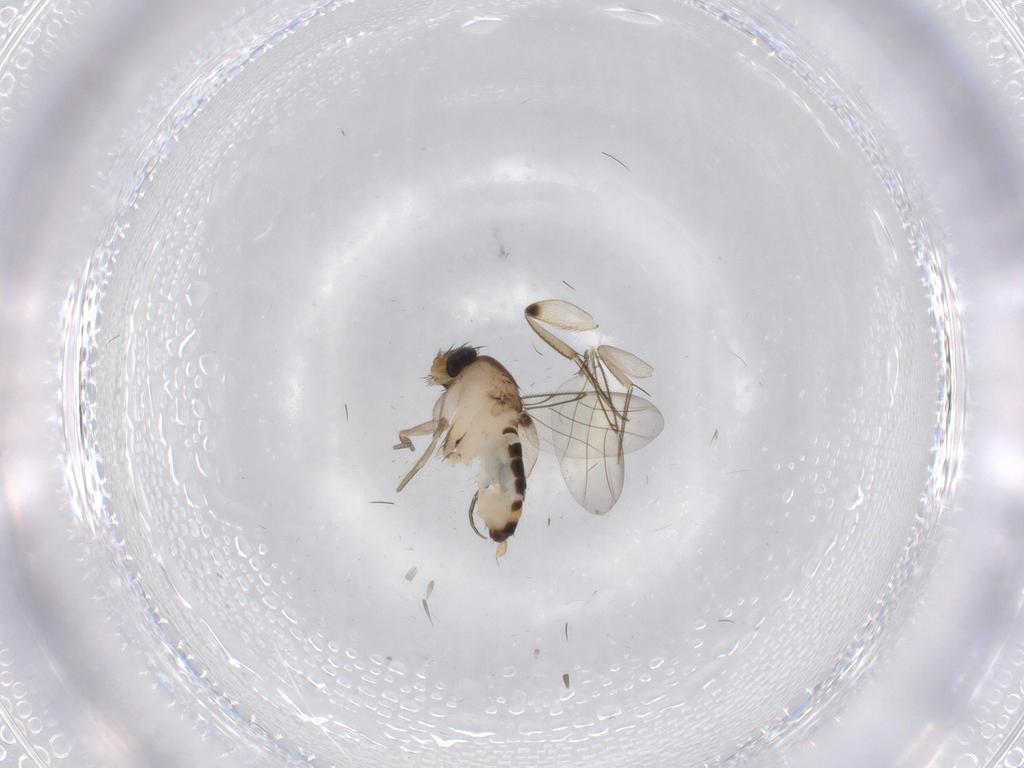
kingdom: Animalia
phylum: Arthropoda
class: Insecta
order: Diptera
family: Phoridae
